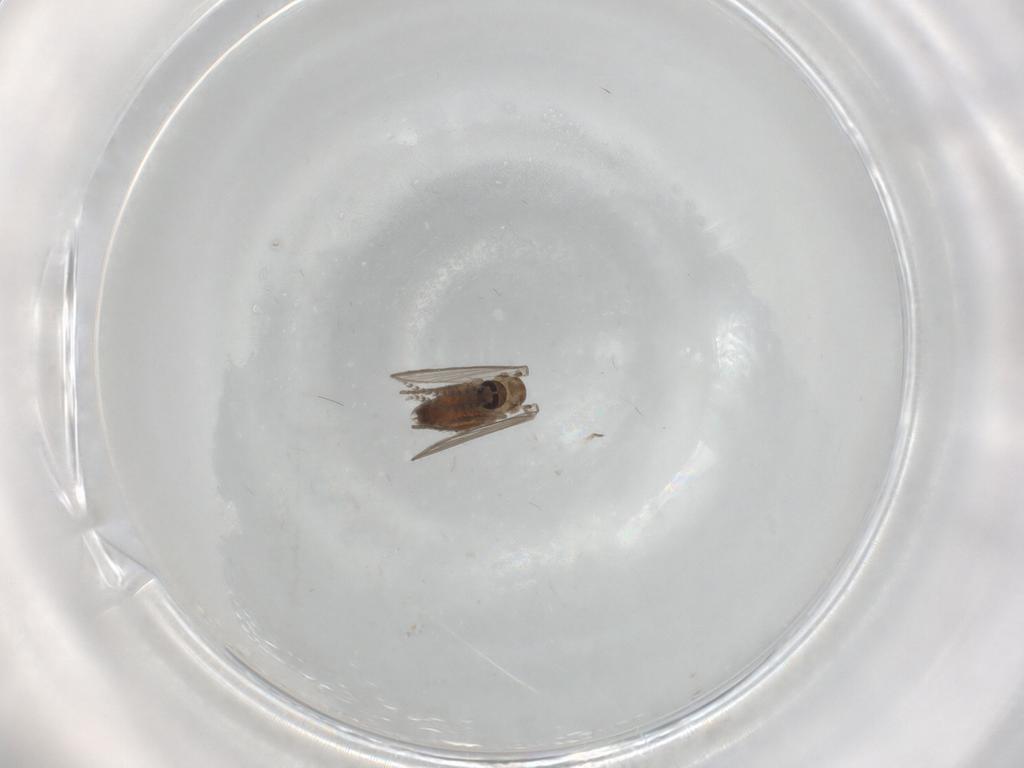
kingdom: Animalia
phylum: Arthropoda
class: Insecta
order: Diptera
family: Psychodidae
